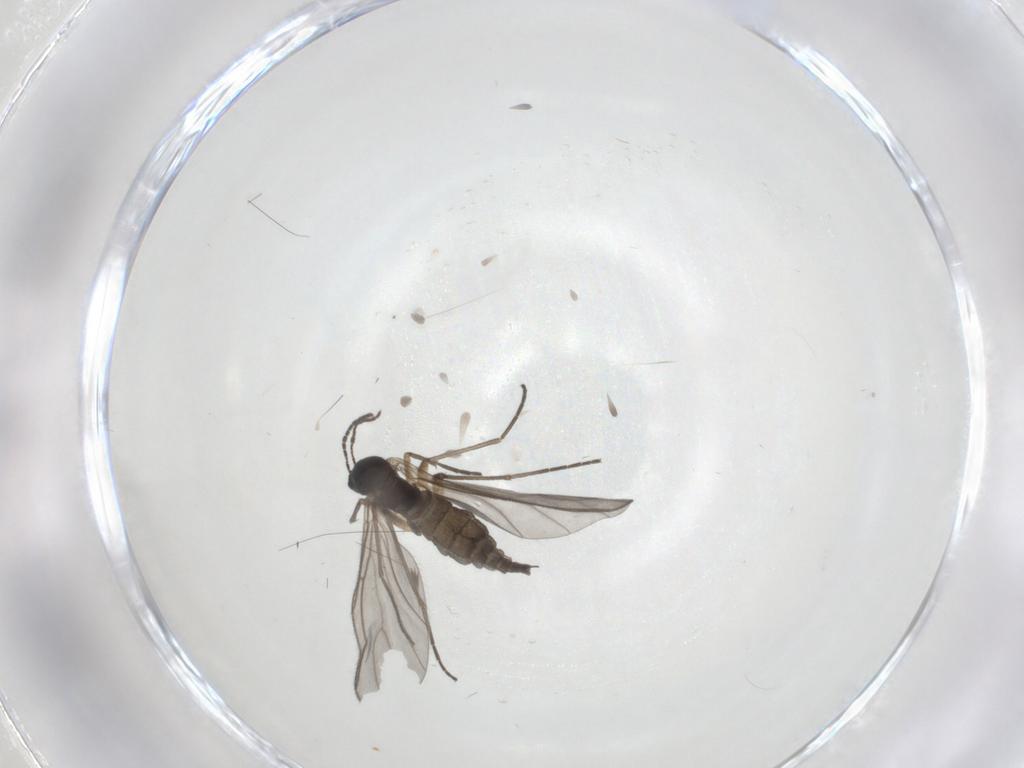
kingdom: Animalia
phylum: Arthropoda
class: Insecta
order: Diptera
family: Sciaridae
